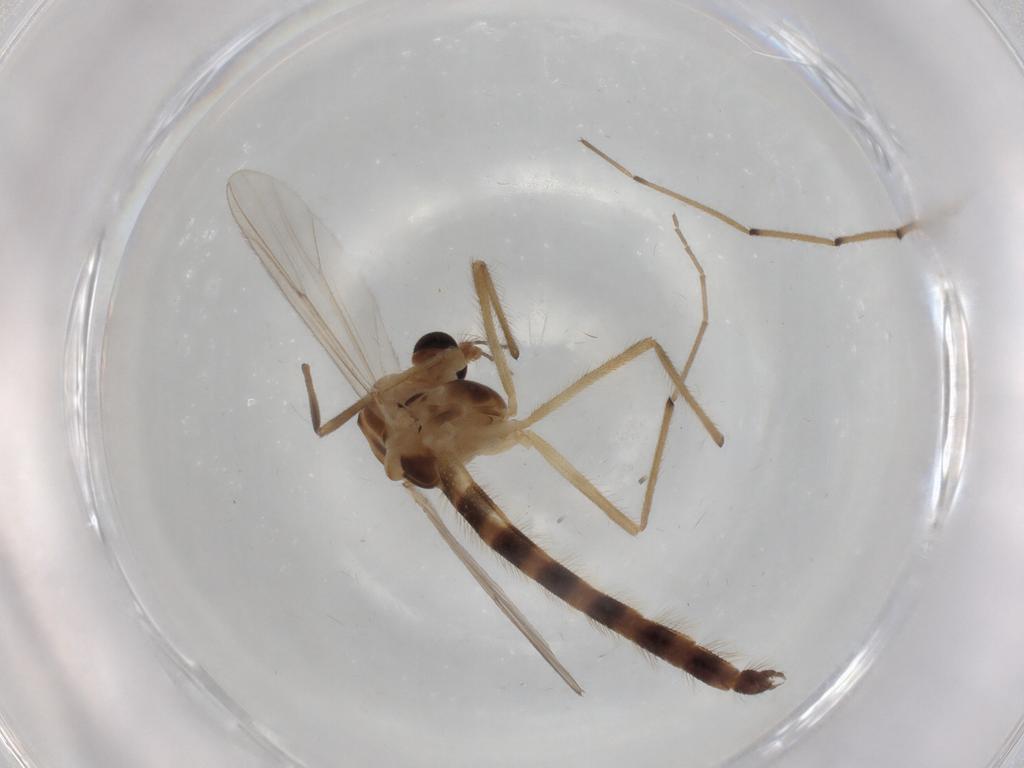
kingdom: Animalia
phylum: Arthropoda
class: Insecta
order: Diptera
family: Chironomidae
